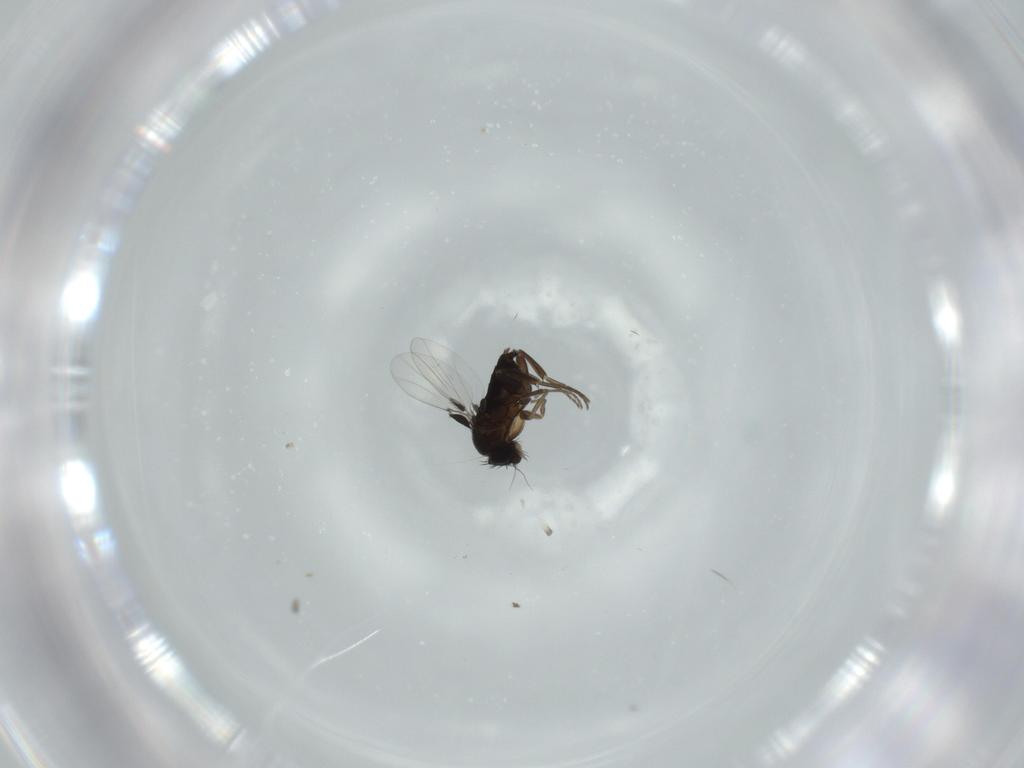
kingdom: Animalia
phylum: Arthropoda
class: Insecta
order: Diptera
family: Phoridae
